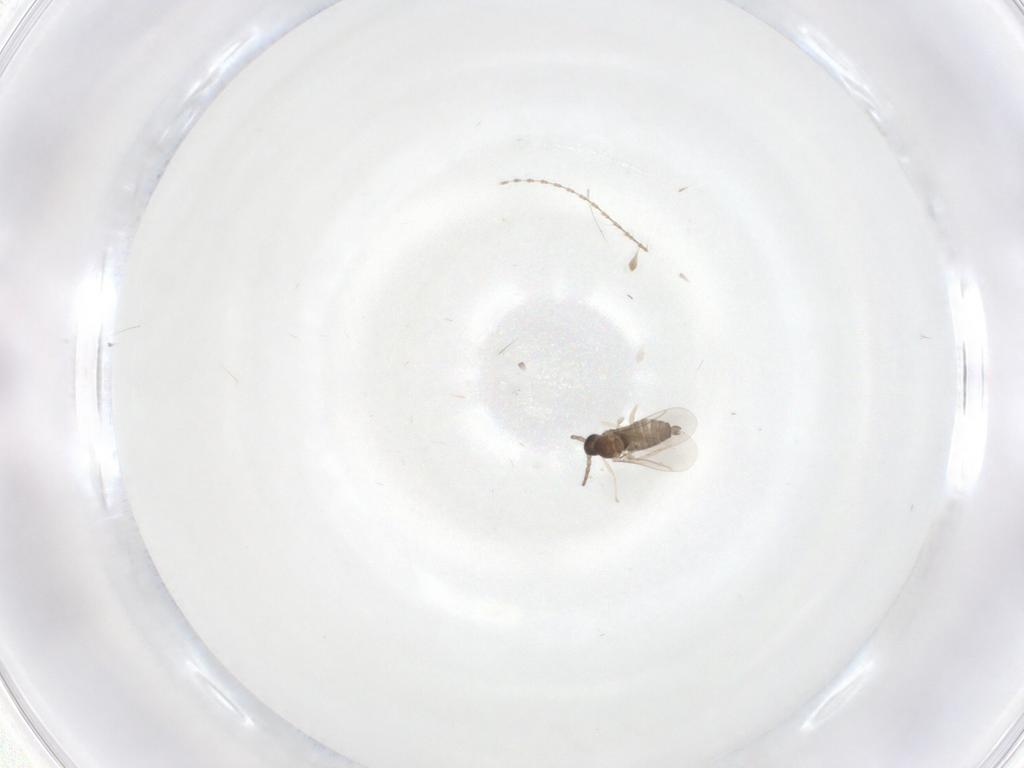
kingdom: Animalia
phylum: Arthropoda
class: Insecta
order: Diptera
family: Cecidomyiidae
